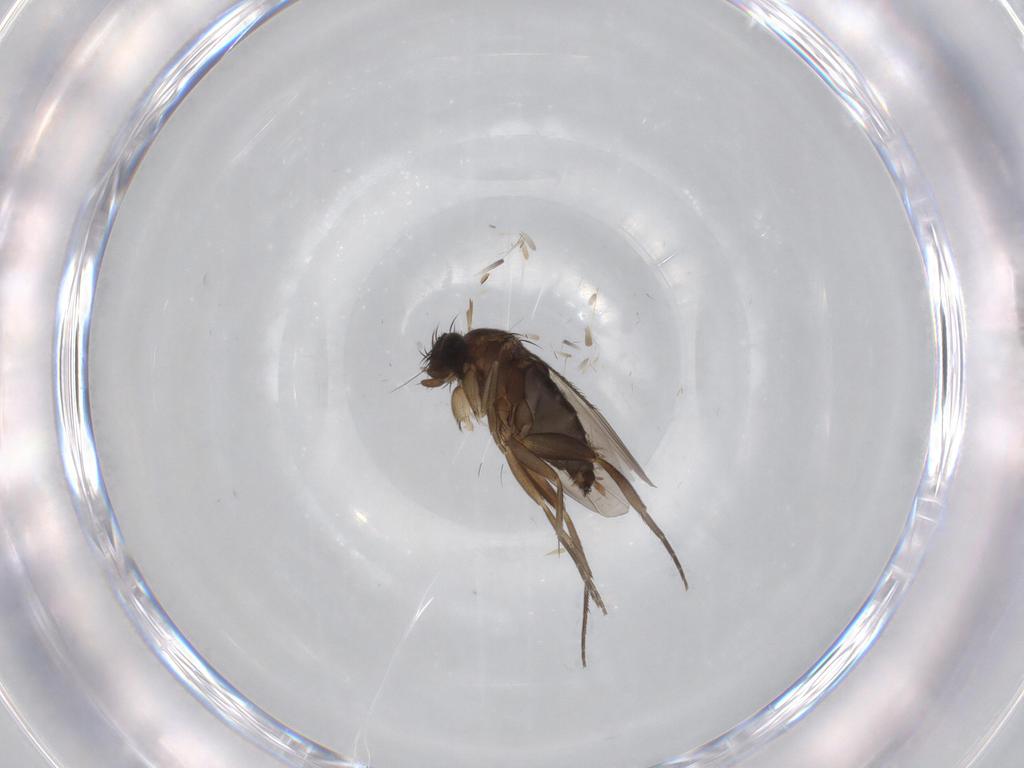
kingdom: Animalia
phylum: Arthropoda
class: Insecta
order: Diptera
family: Phoridae
